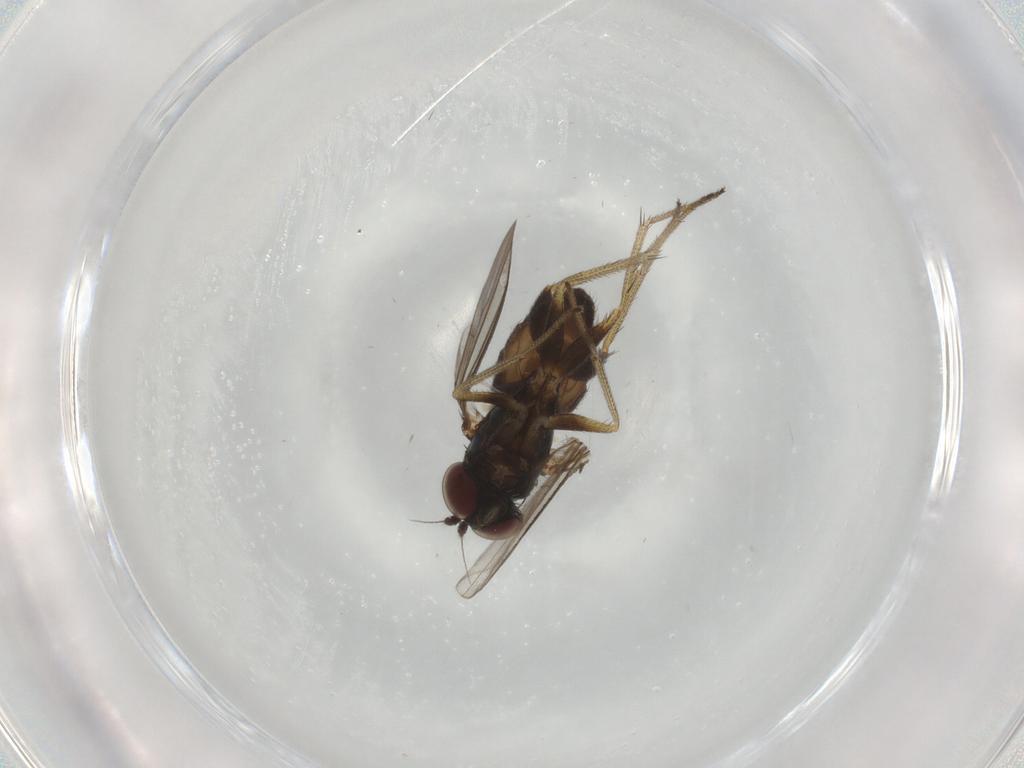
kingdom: Animalia
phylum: Arthropoda
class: Insecta
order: Diptera
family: Dolichopodidae
